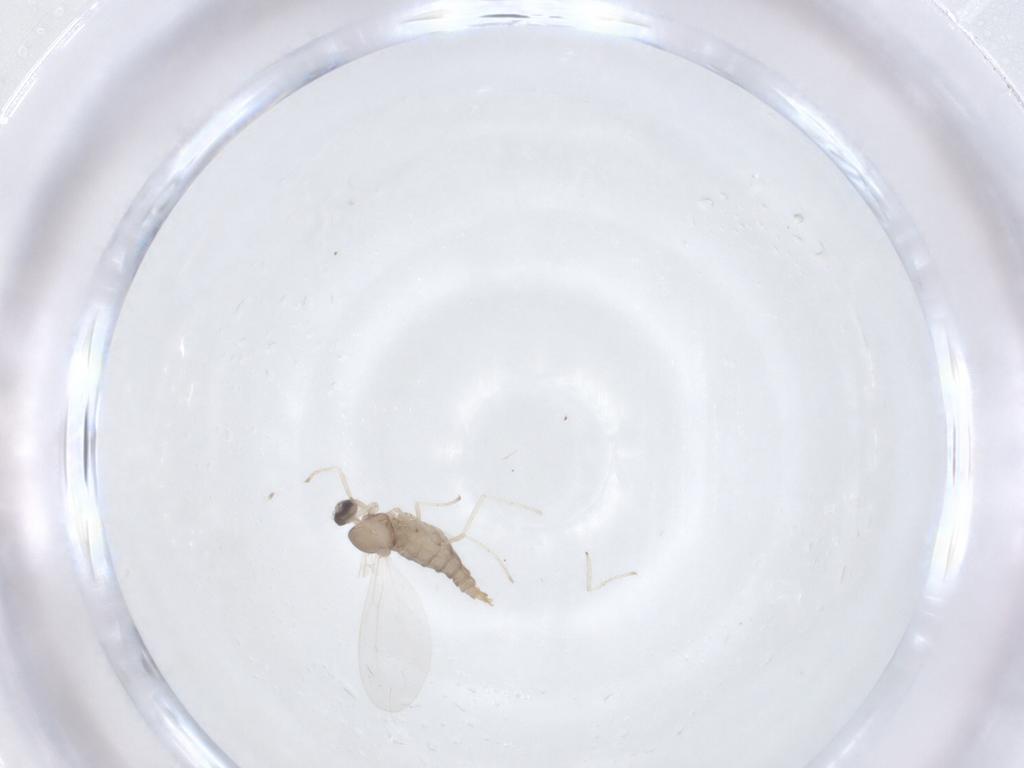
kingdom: Animalia
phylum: Arthropoda
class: Insecta
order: Diptera
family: Cecidomyiidae
